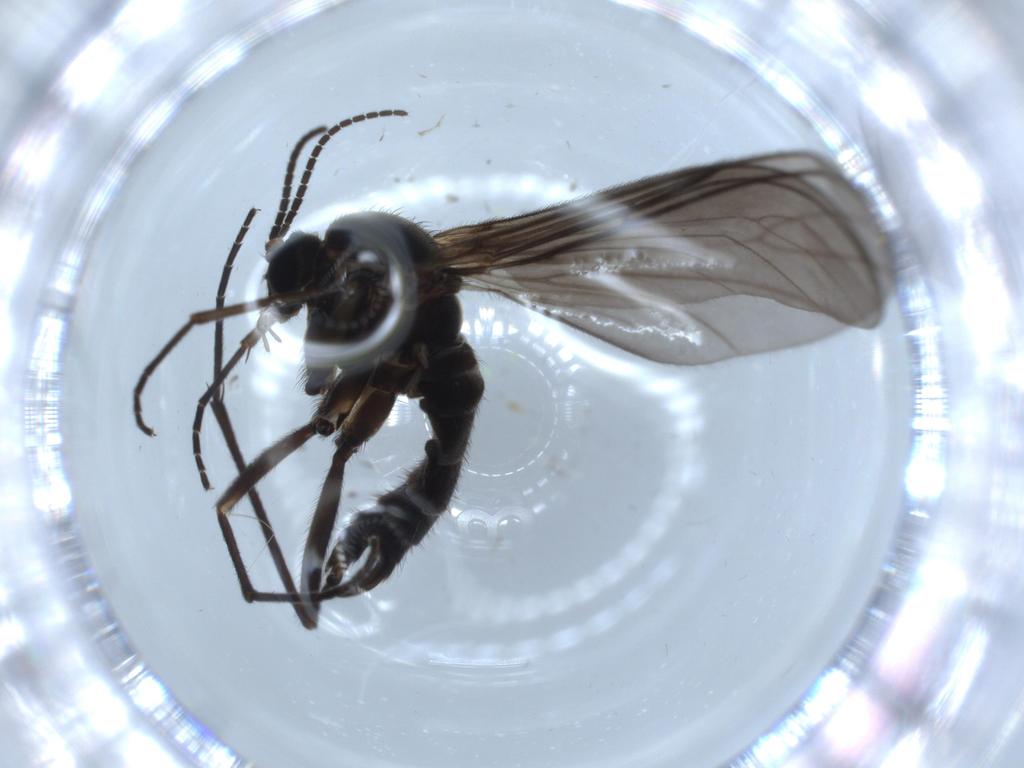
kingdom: Animalia
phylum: Arthropoda
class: Insecta
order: Diptera
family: Sciaridae
